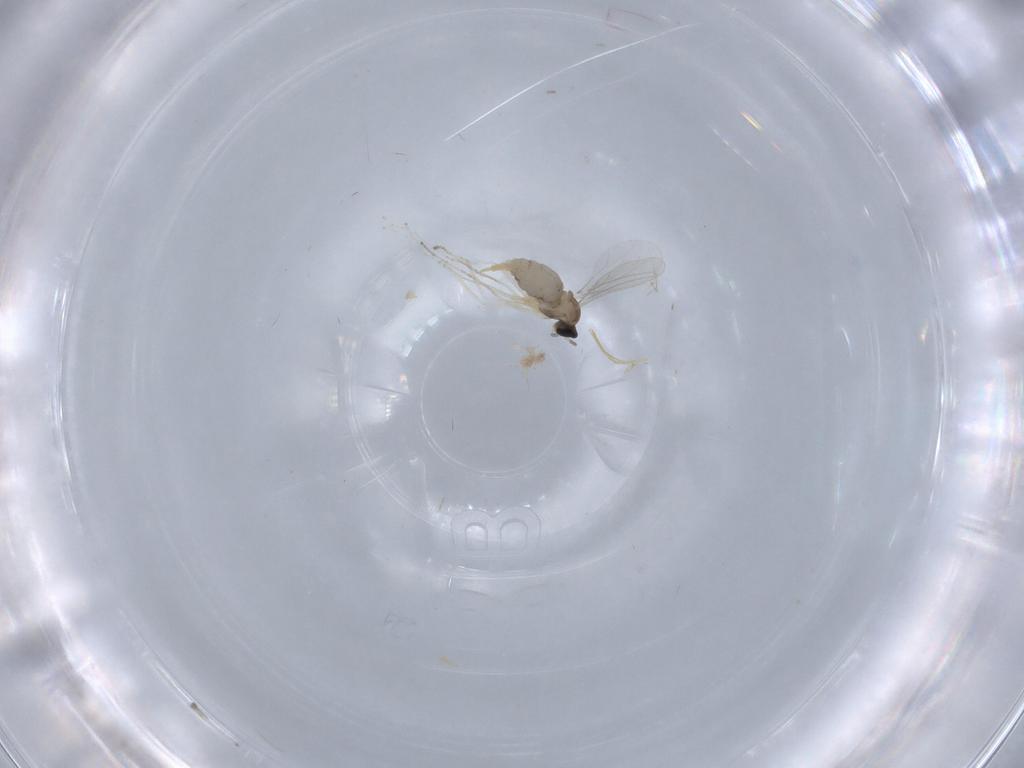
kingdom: Animalia
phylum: Arthropoda
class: Insecta
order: Diptera
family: Cecidomyiidae
